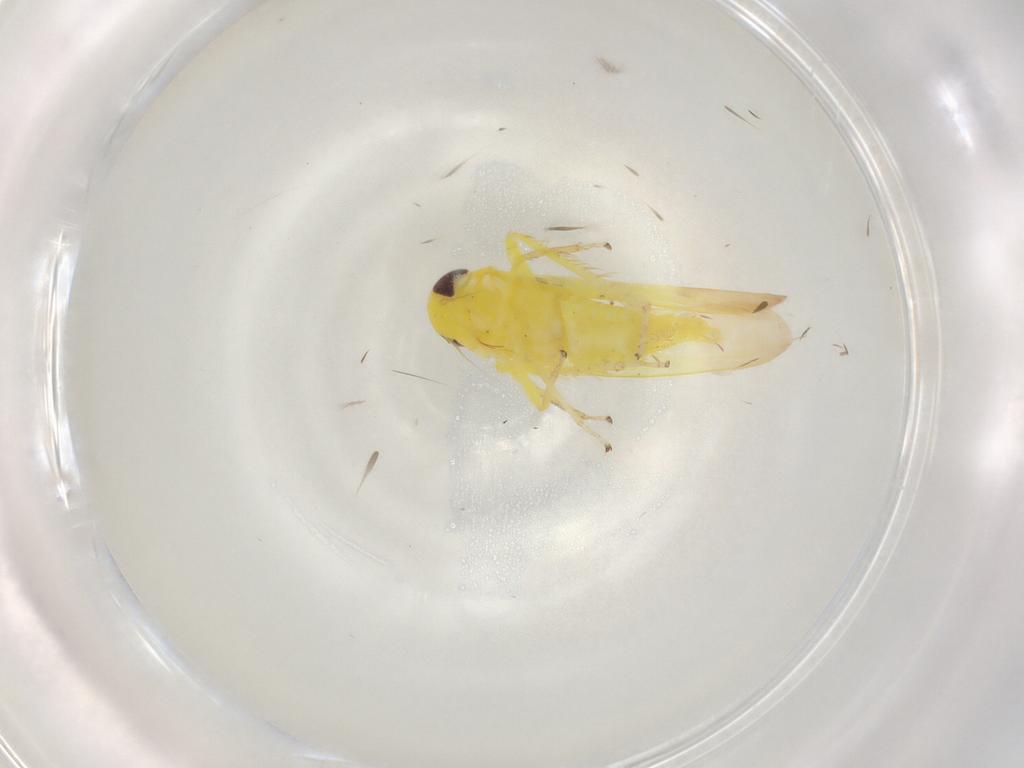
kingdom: Animalia
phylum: Arthropoda
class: Insecta
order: Hemiptera
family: Cicadellidae
